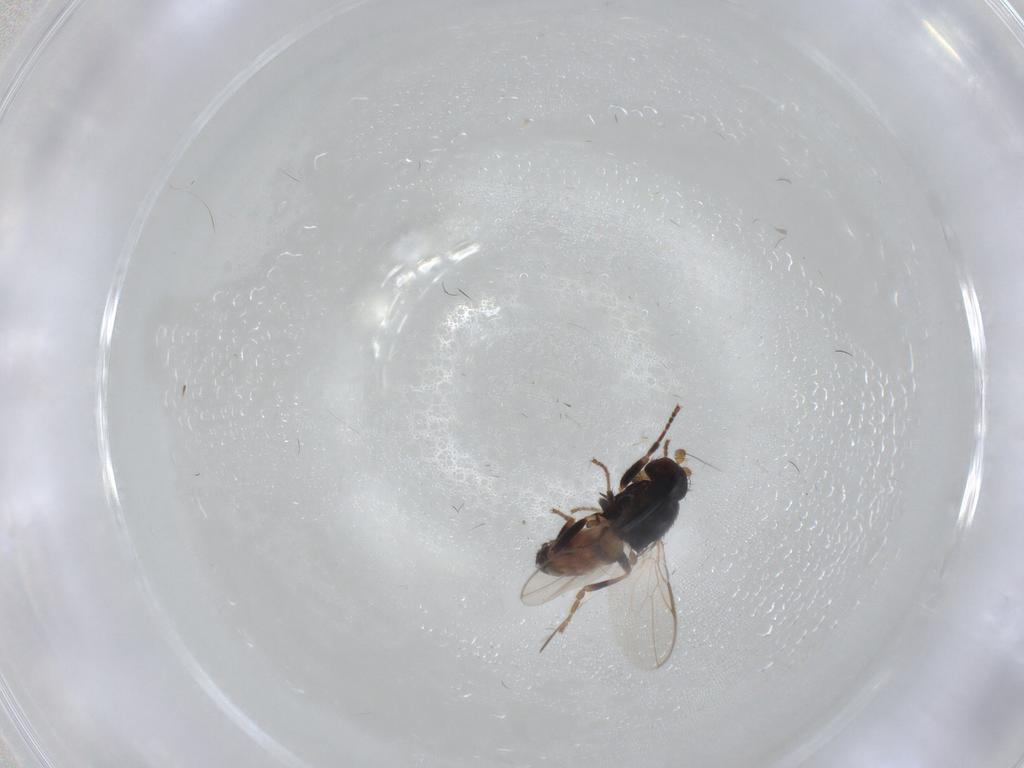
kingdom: Animalia
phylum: Arthropoda
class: Insecta
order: Diptera
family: Sphaeroceridae
